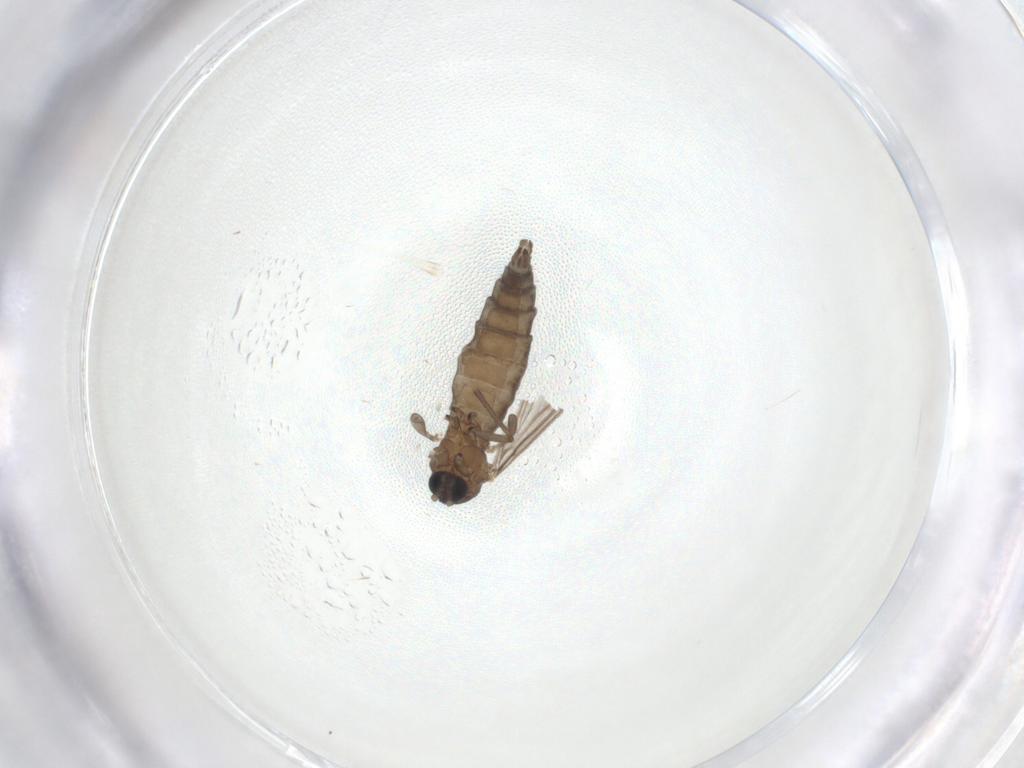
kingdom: Animalia
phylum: Arthropoda
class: Insecta
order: Diptera
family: Sciaridae
